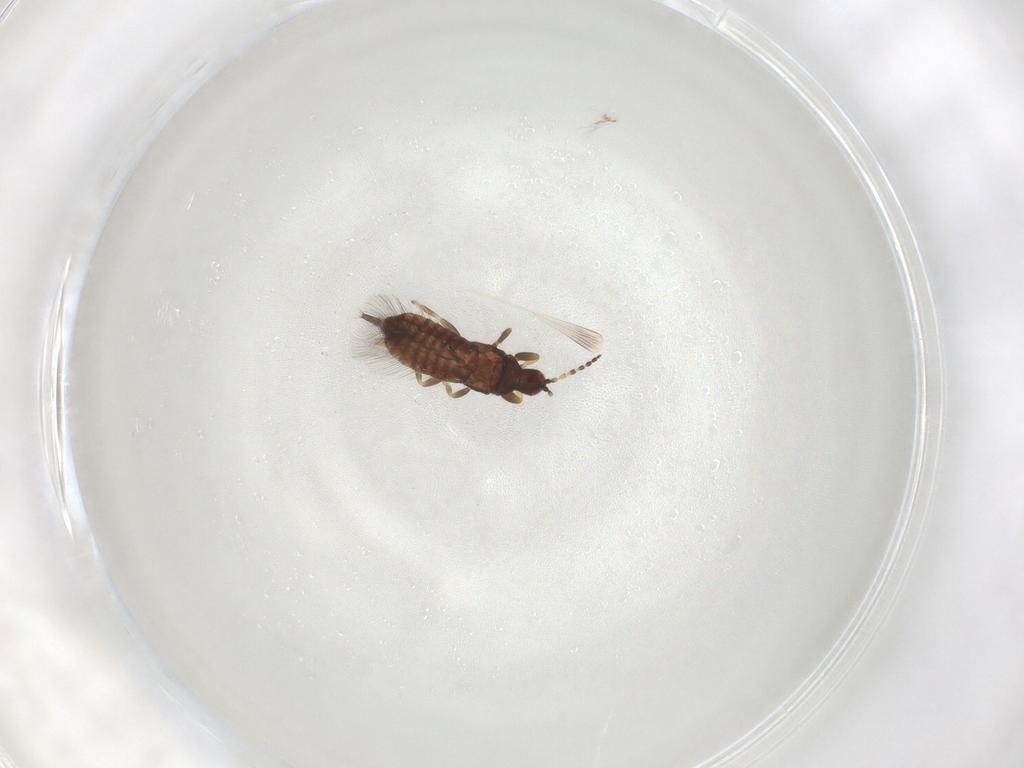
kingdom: Animalia
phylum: Arthropoda
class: Insecta
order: Thysanoptera
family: Phlaeothripidae
